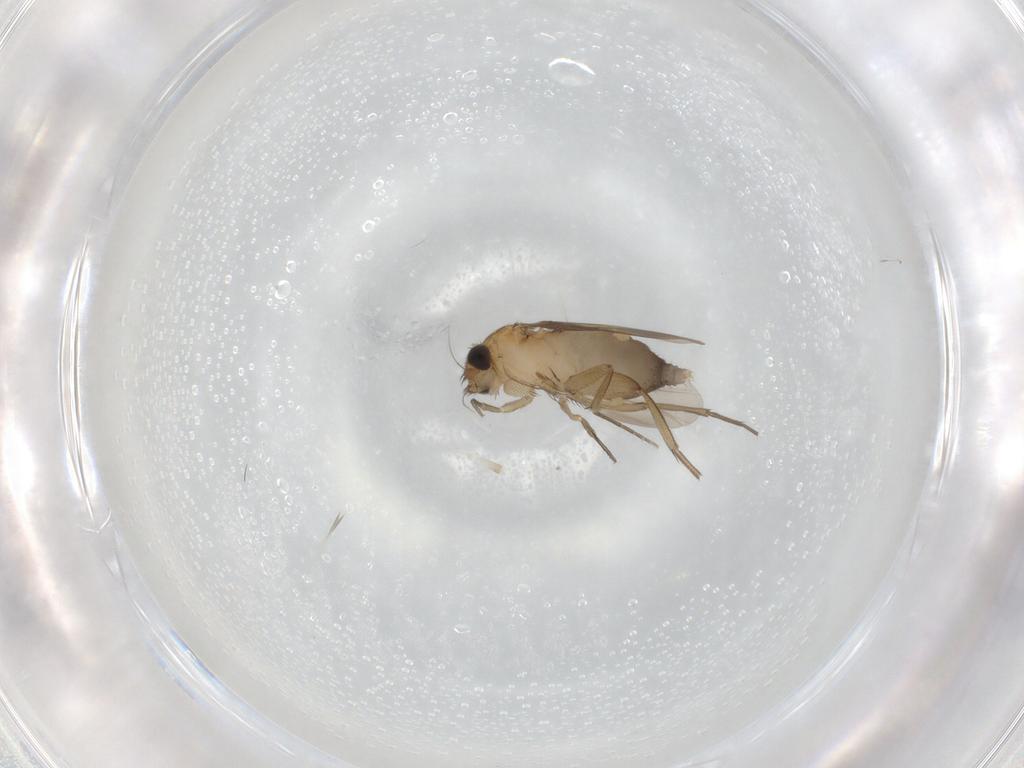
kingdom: Animalia
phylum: Arthropoda
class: Insecta
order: Diptera
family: Phoridae
